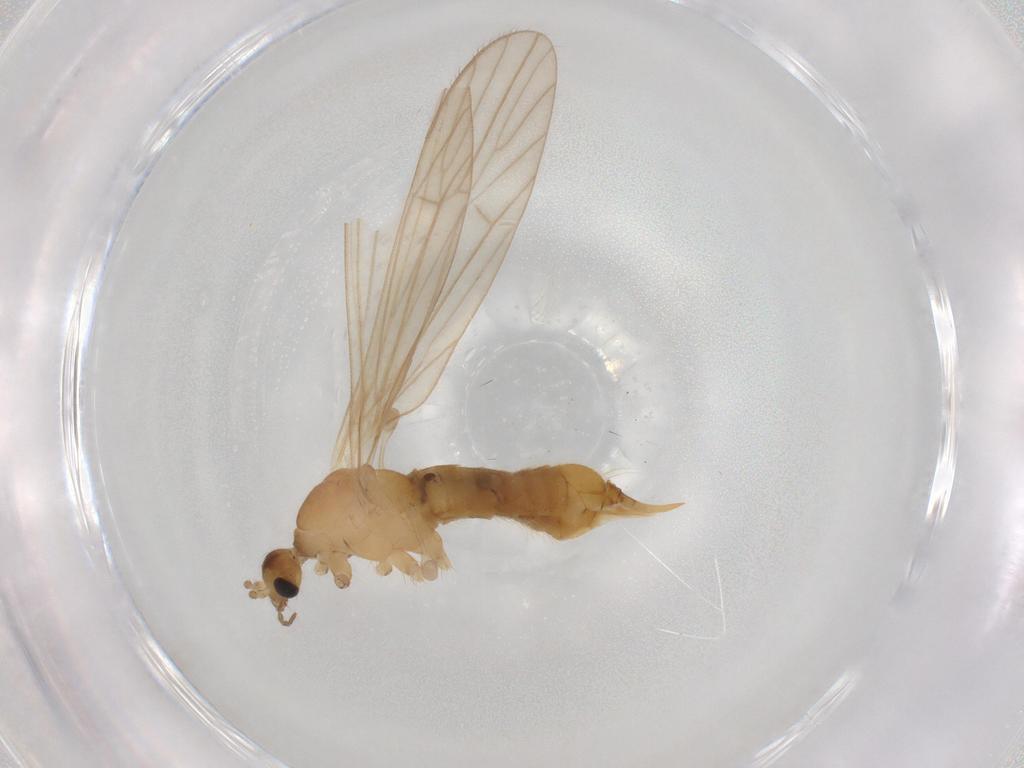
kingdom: Animalia
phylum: Arthropoda
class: Insecta
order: Diptera
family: Limoniidae
